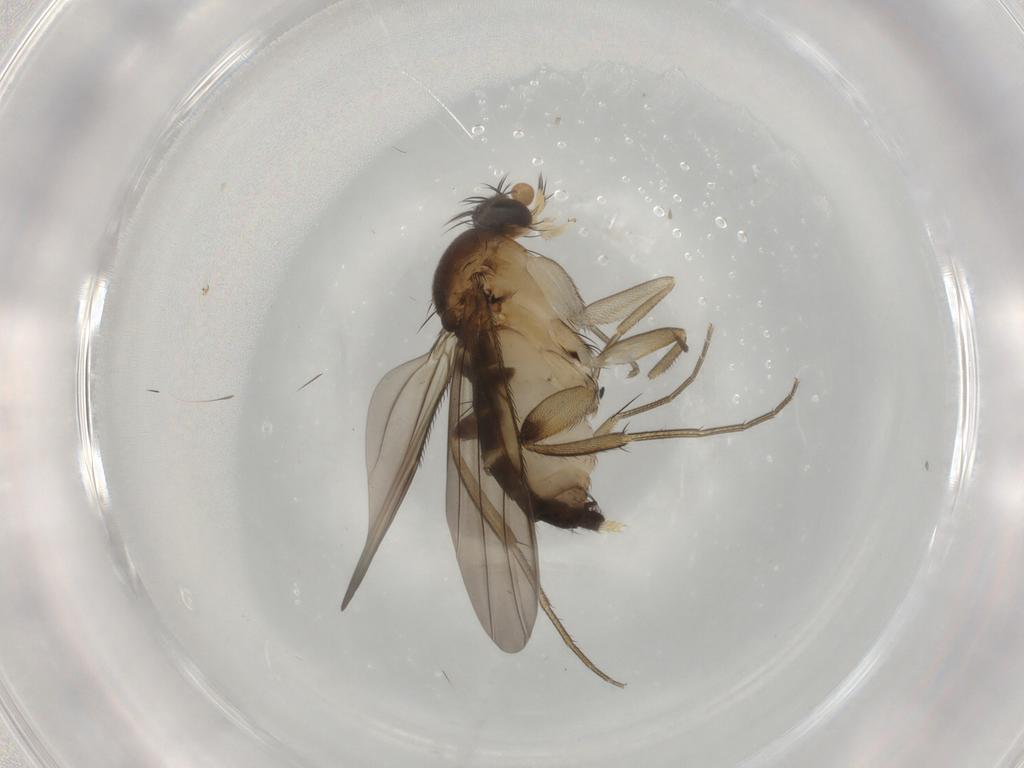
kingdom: Animalia
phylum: Arthropoda
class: Insecta
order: Diptera
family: Phoridae
